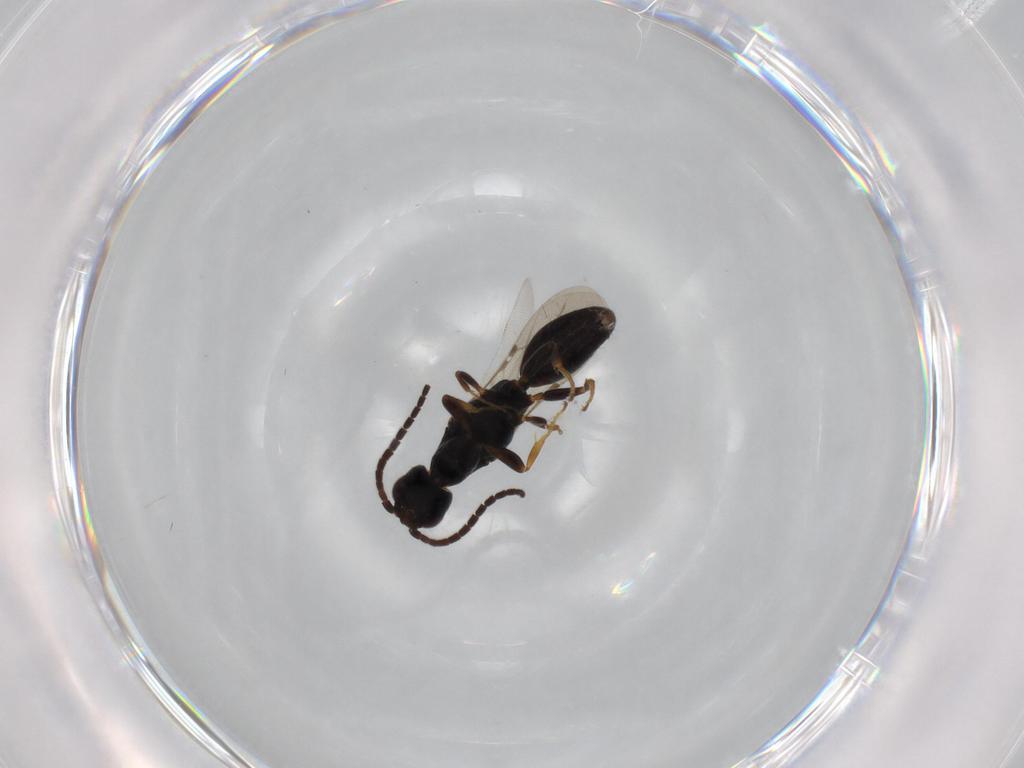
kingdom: Animalia
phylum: Arthropoda
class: Insecta
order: Hymenoptera
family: Bethylidae
